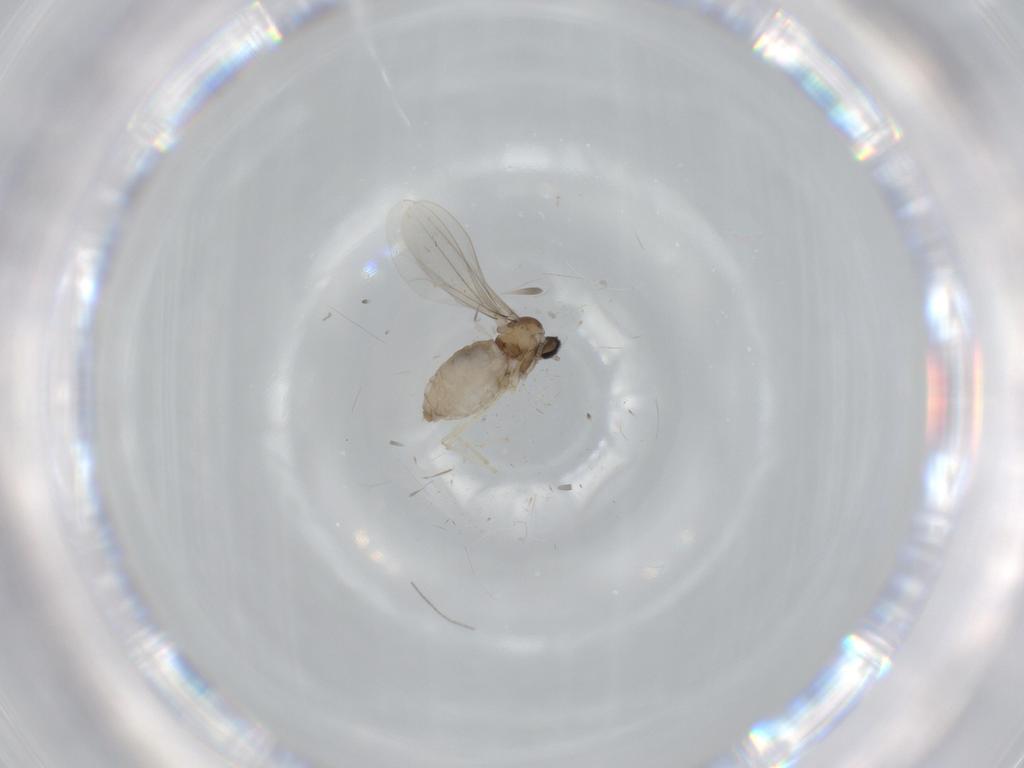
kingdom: Animalia
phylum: Arthropoda
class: Insecta
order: Diptera
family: Cecidomyiidae
